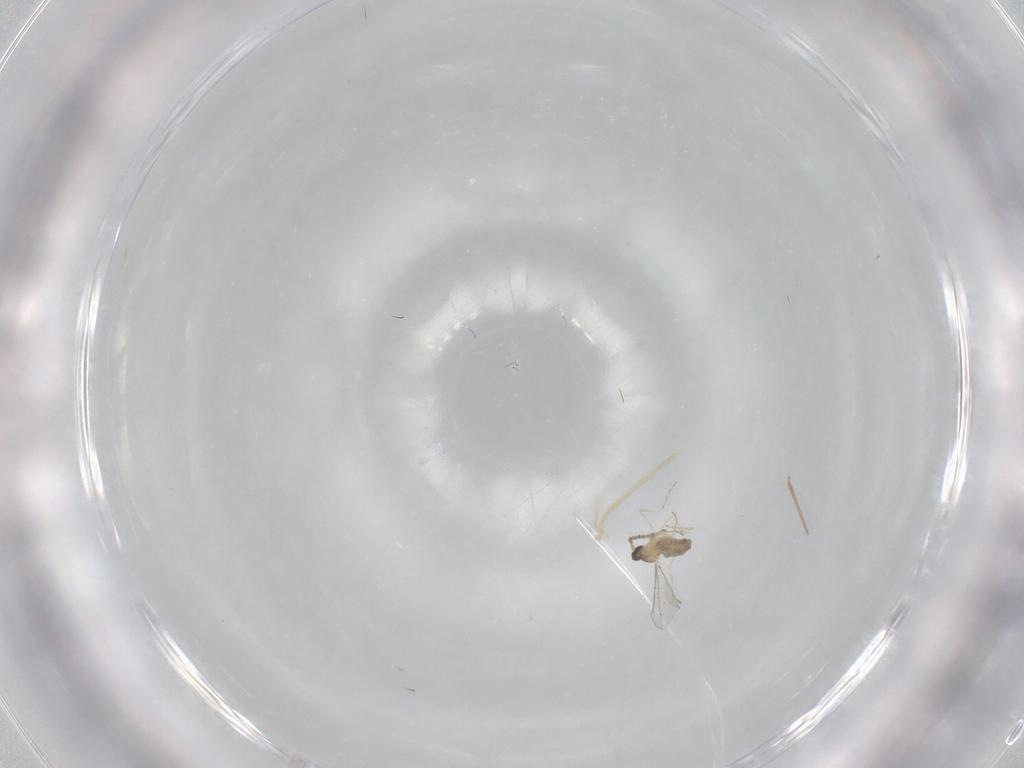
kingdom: Animalia
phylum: Arthropoda
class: Insecta
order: Diptera
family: Cecidomyiidae
